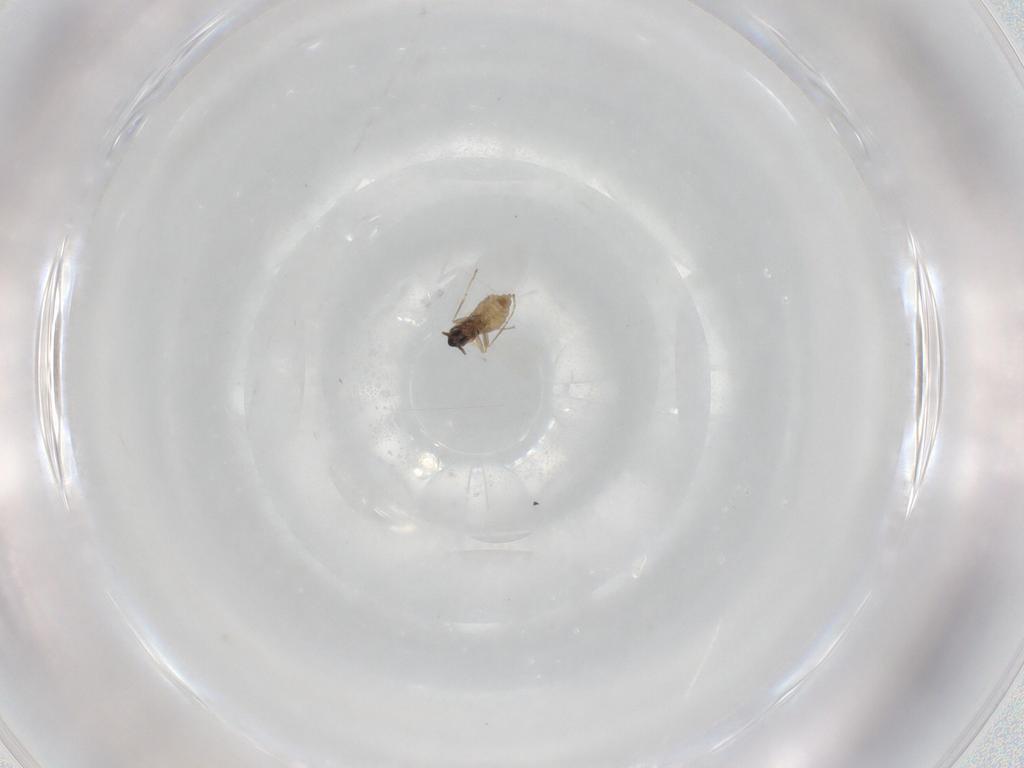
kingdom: Animalia
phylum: Arthropoda
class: Insecta
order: Diptera
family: Cecidomyiidae
